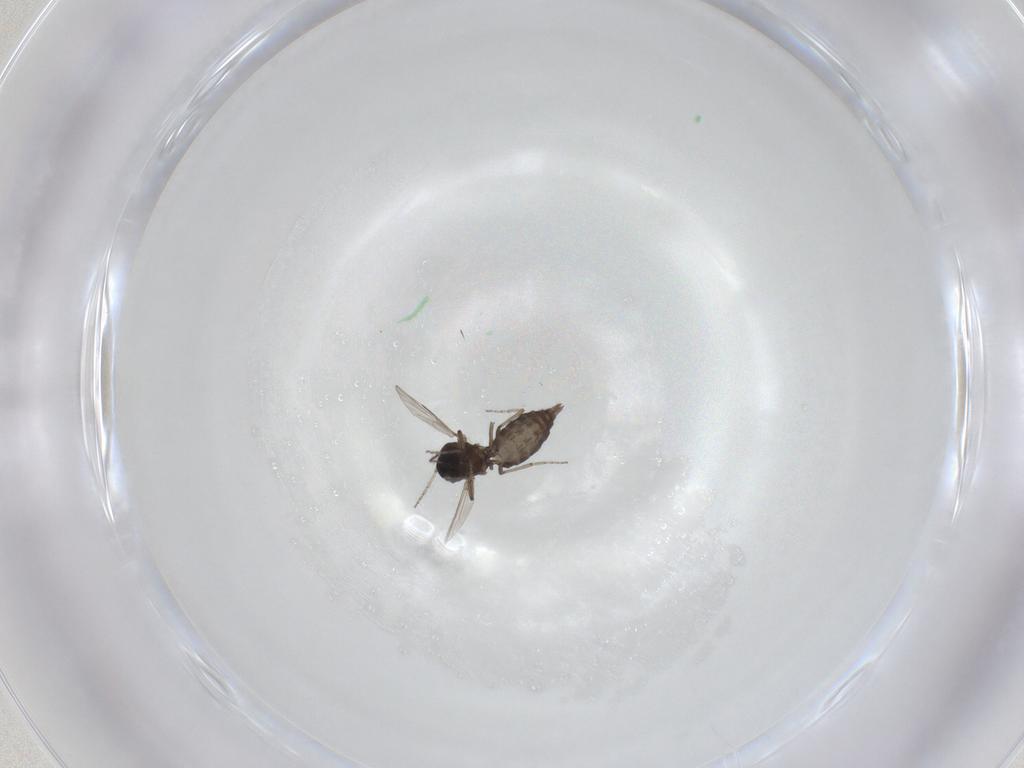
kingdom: Animalia
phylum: Arthropoda
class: Insecta
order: Diptera
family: Ceratopogonidae
